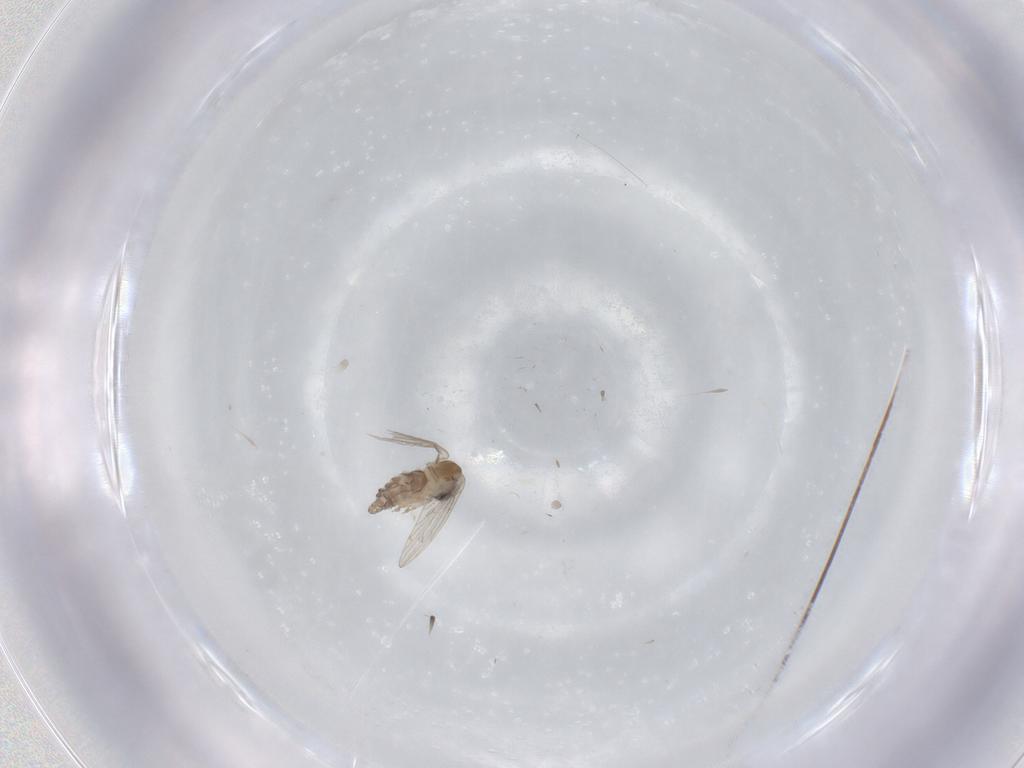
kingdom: Animalia
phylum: Arthropoda
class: Insecta
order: Diptera
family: Cecidomyiidae
